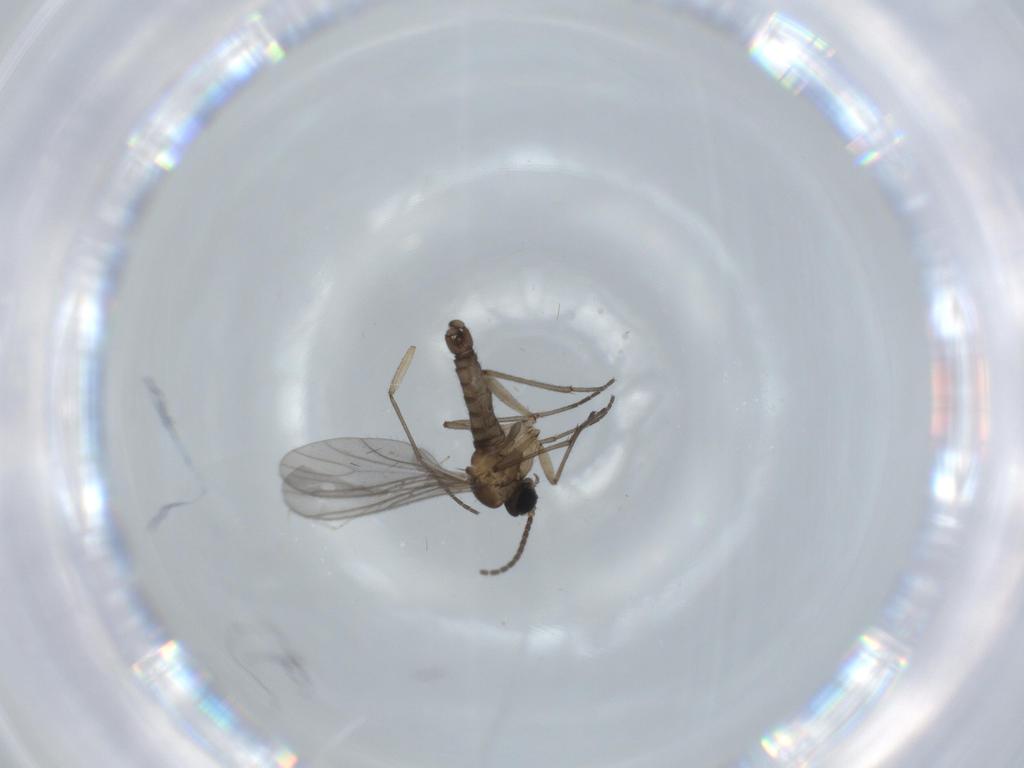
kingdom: Animalia
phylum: Arthropoda
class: Insecta
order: Diptera
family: Sciaridae
